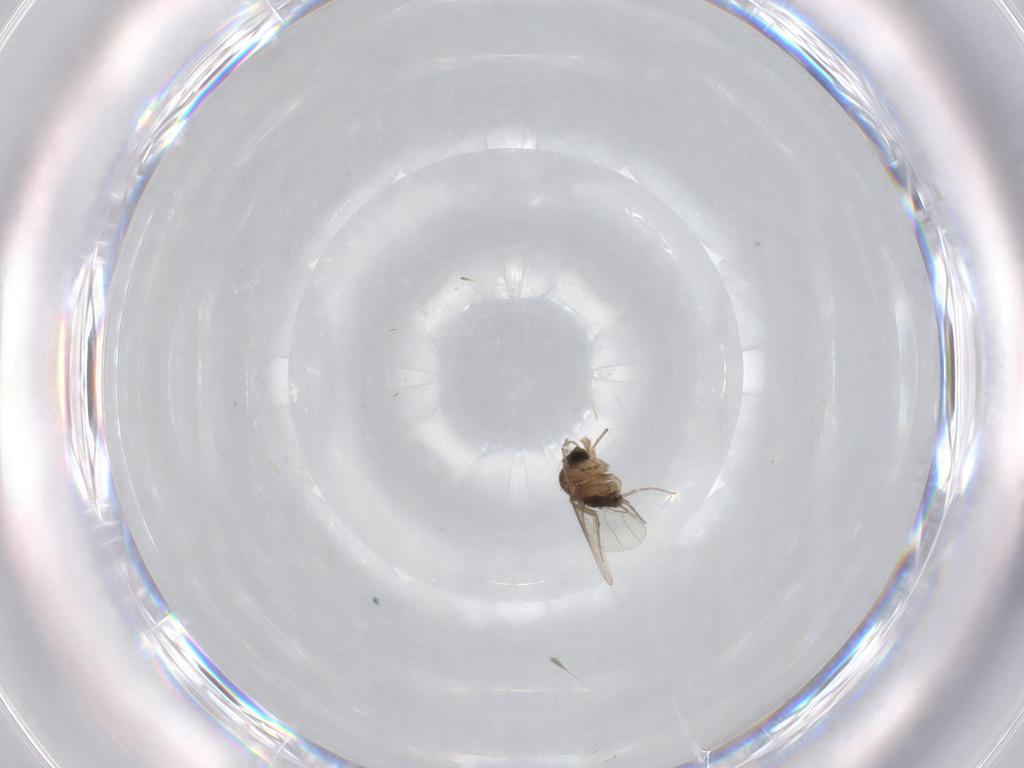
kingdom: Animalia
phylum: Arthropoda
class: Insecta
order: Diptera
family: Phoridae
